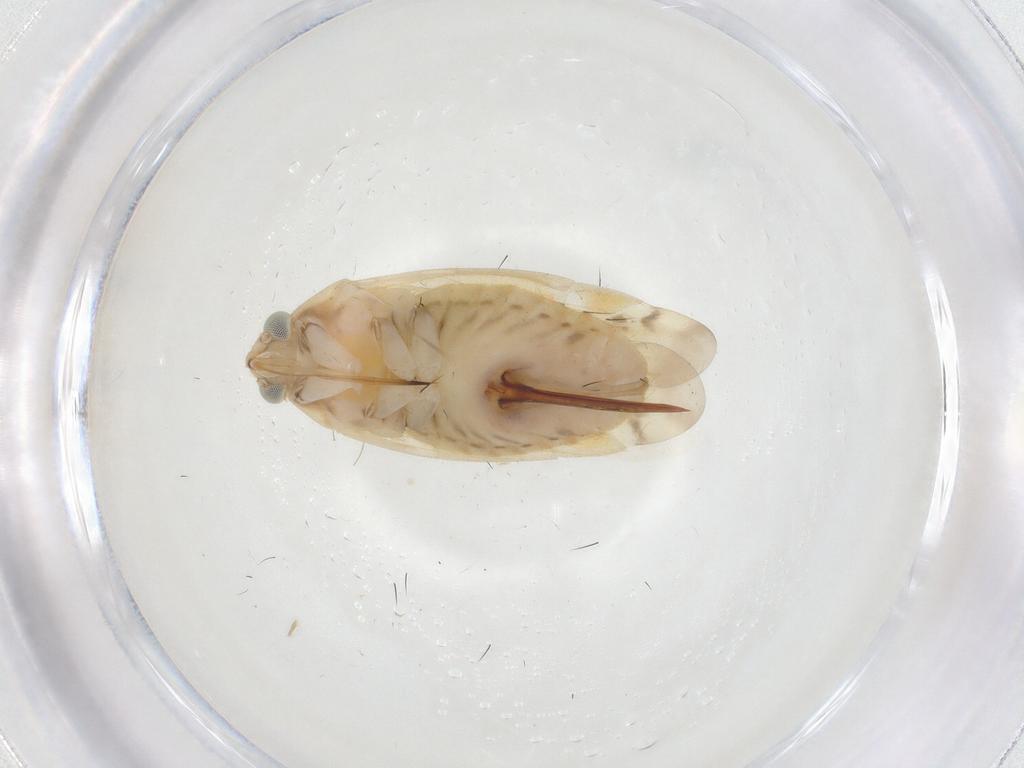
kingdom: Animalia
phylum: Arthropoda
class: Insecta
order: Hemiptera
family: Miridae
